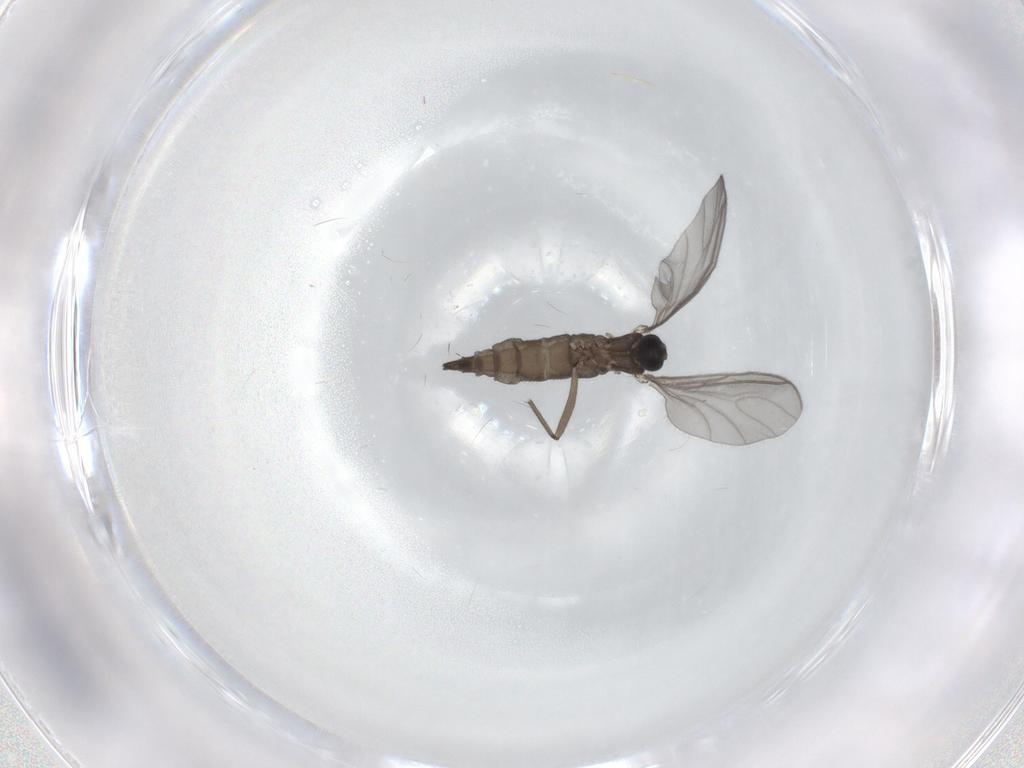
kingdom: Animalia
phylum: Arthropoda
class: Insecta
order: Diptera
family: Sciaridae
